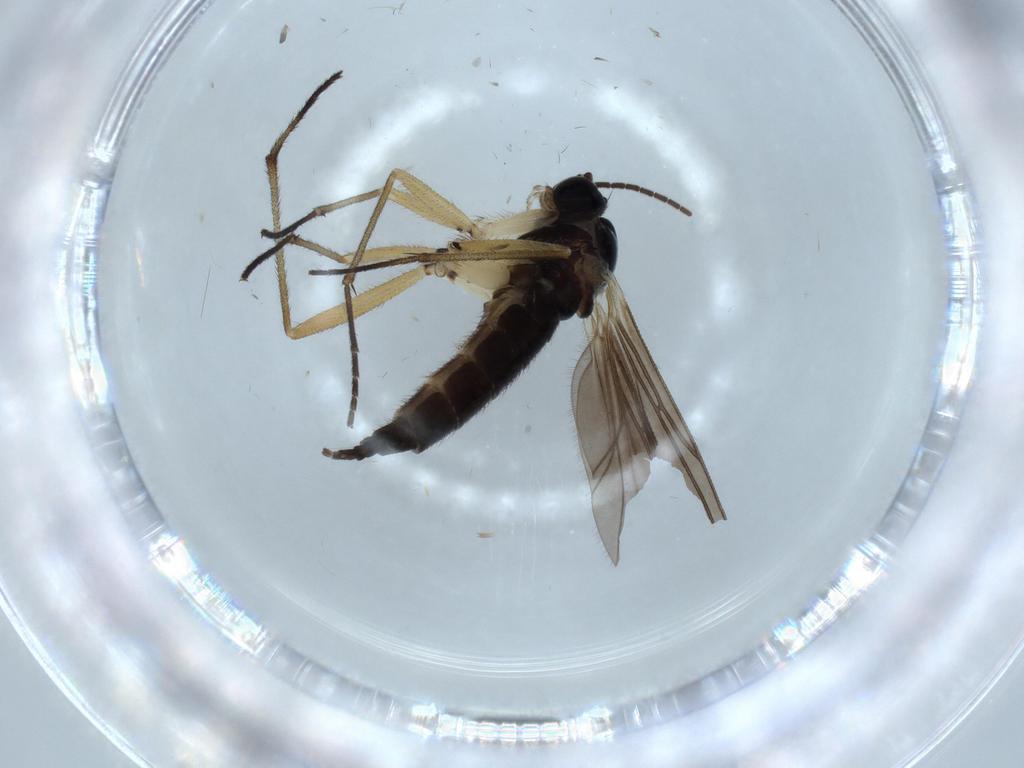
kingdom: Animalia
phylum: Arthropoda
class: Insecta
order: Diptera
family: Sciaridae
